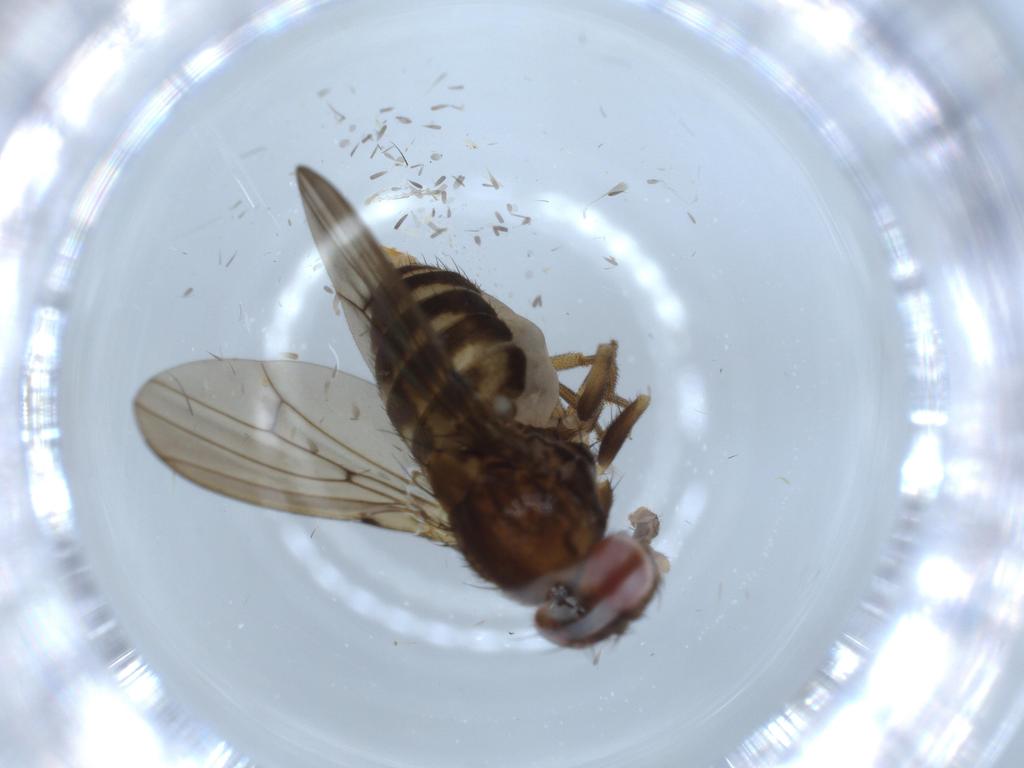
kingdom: Animalia
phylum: Arthropoda
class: Insecta
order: Diptera
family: Drosophilidae
